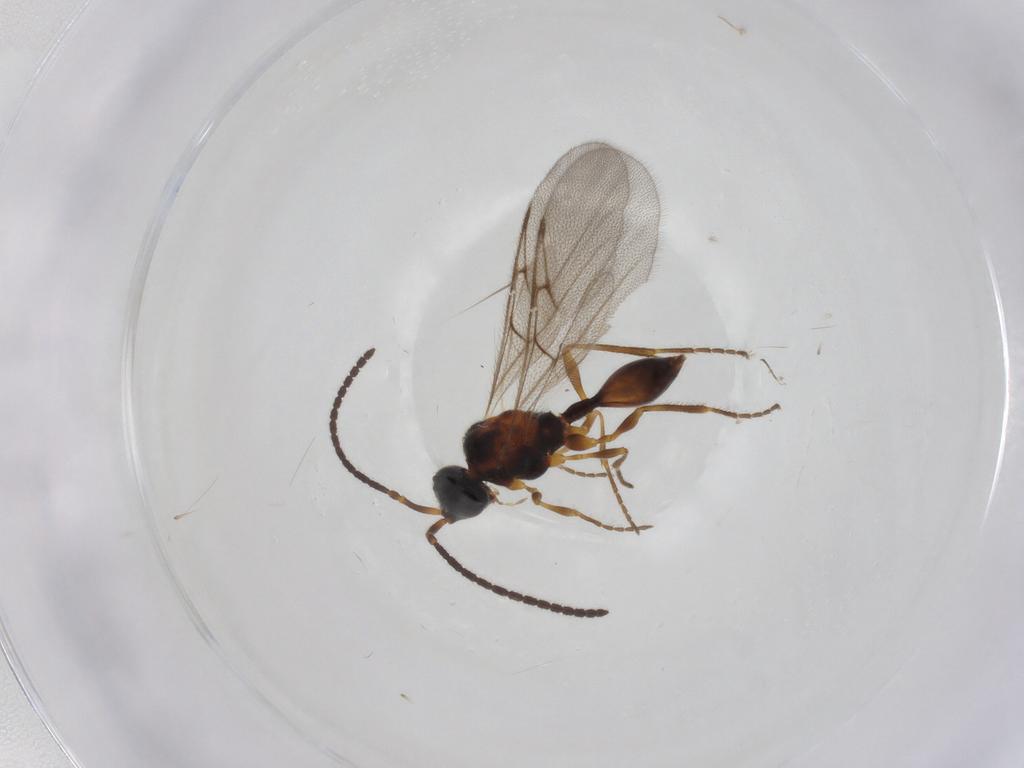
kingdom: Animalia
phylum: Arthropoda
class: Insecta
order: Hymenoptera
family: Mymaridae
